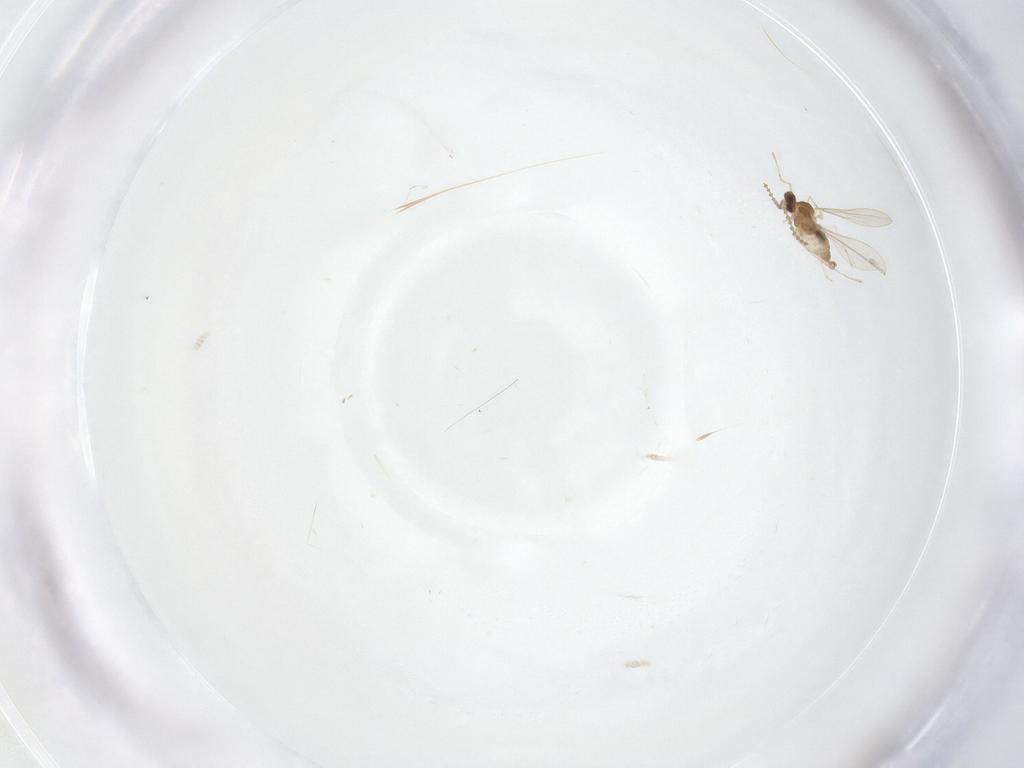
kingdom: Animalia
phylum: Arthropoda
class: Insecta
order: Diptera
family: Cecidomyiidae
